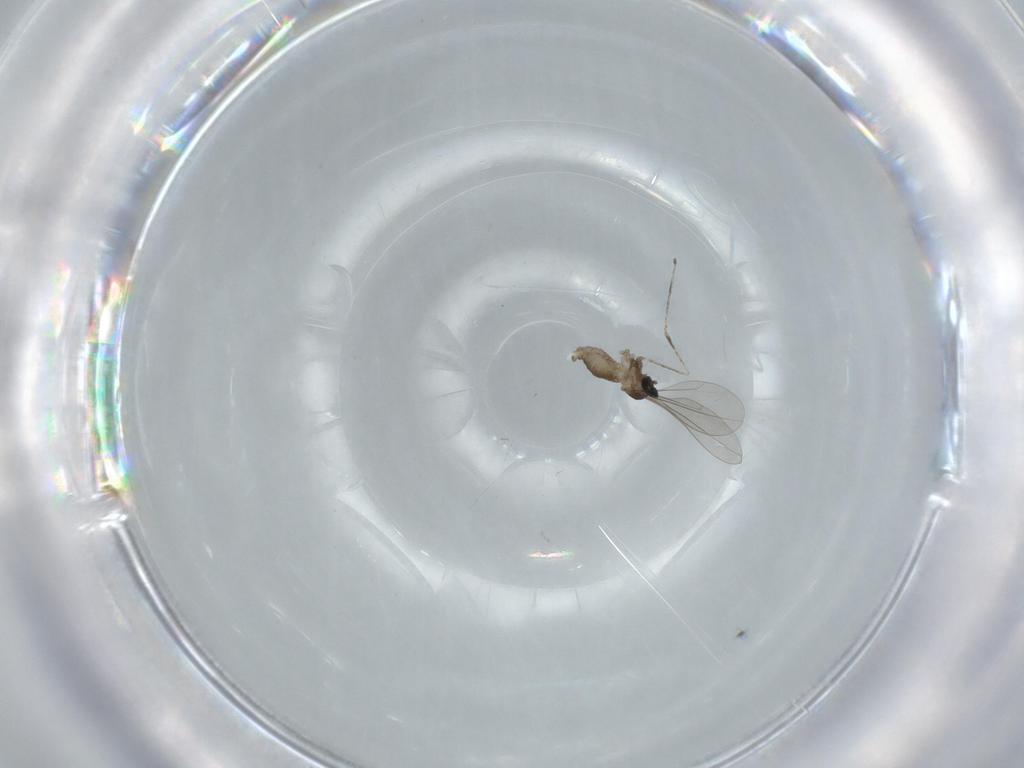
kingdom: Animalia
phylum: Arthropoda
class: Insecta
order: Diptera
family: Cecidomyiidae
